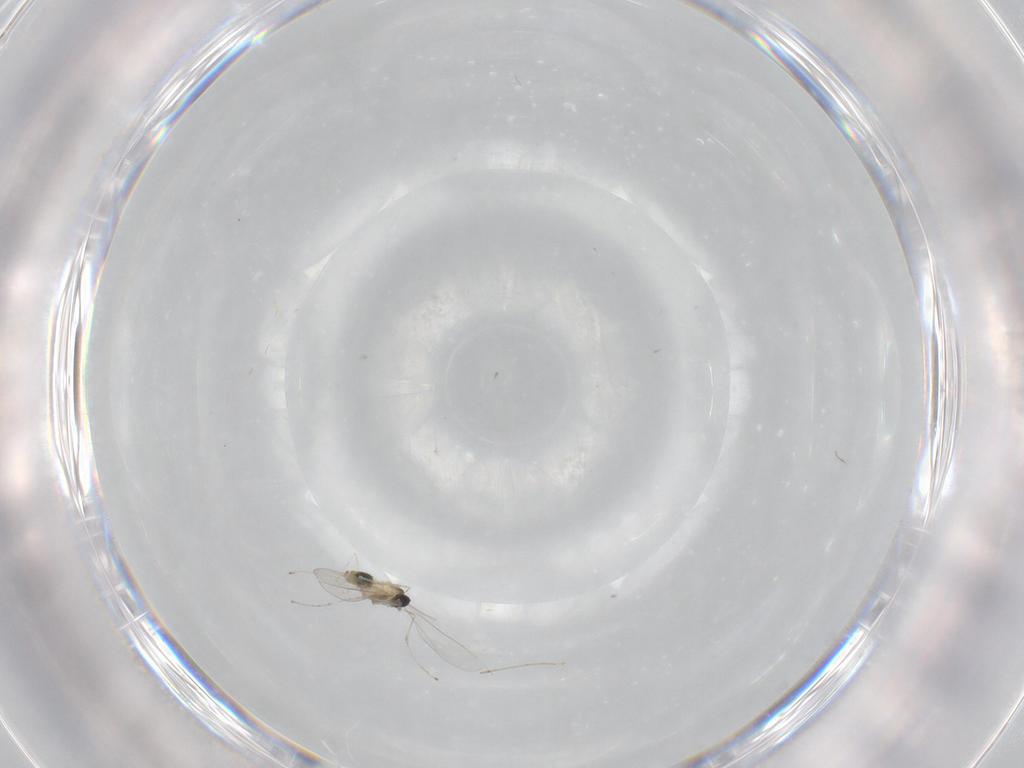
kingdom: Animalia
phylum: Arthropoda
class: Insecta
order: Diptera
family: Cecidomyiidae
